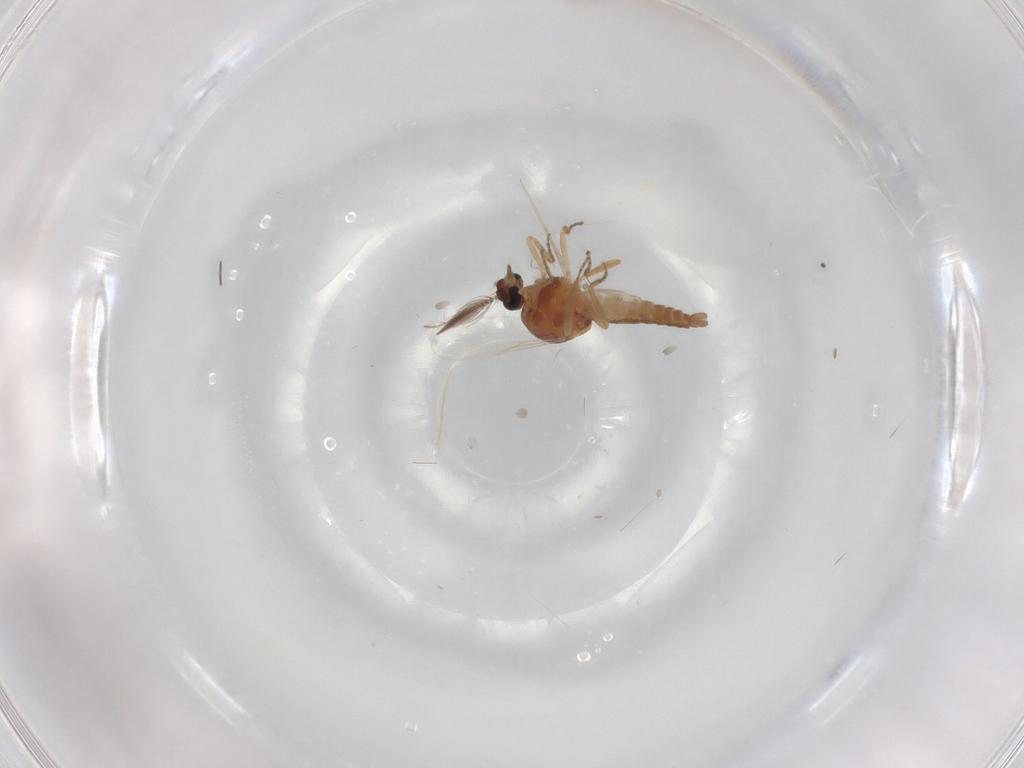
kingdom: Animalia
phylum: Arthropoda
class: Insecta
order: Diptera
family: Ceratopogonidae
